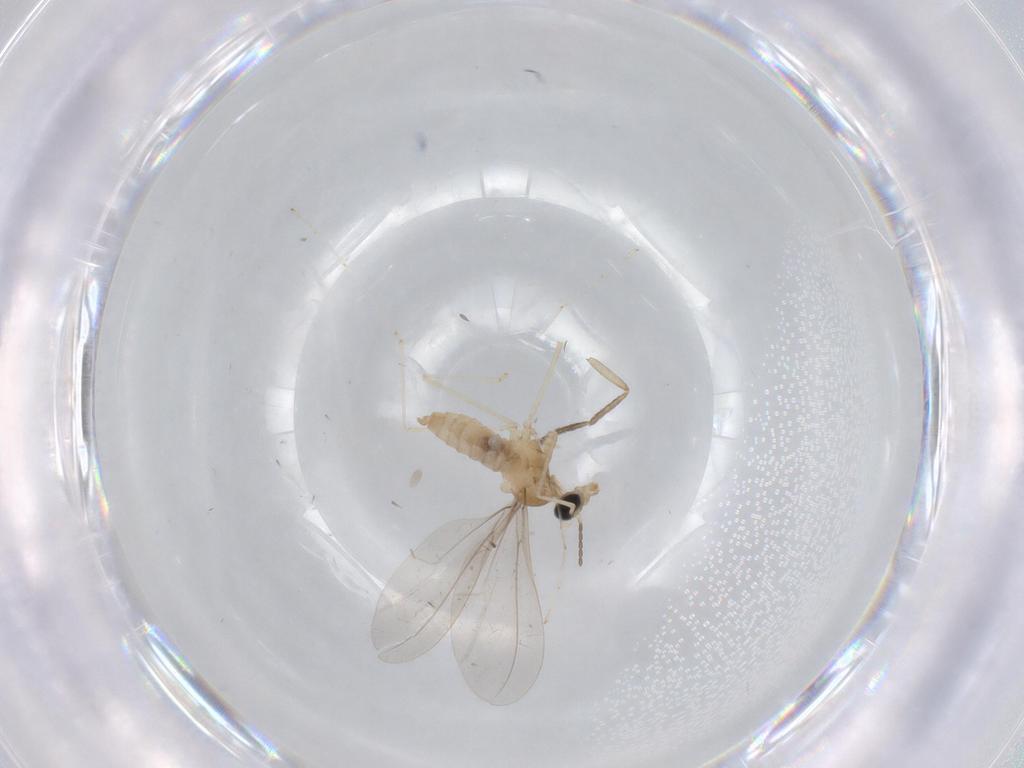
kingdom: Animalia
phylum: Arthropoda
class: Insecta
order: Diptera
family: Cecidomyiidae
